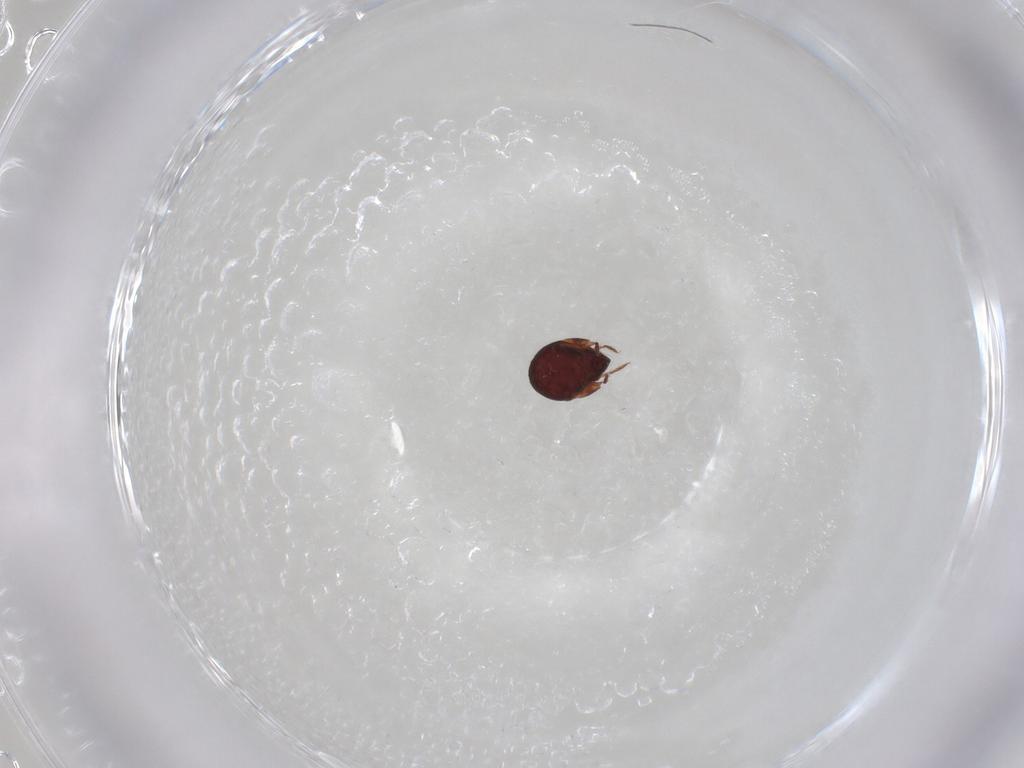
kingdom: Animalia
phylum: Arthropoda
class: Arachnida
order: Sarcoptiformes
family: Humerobatidae
